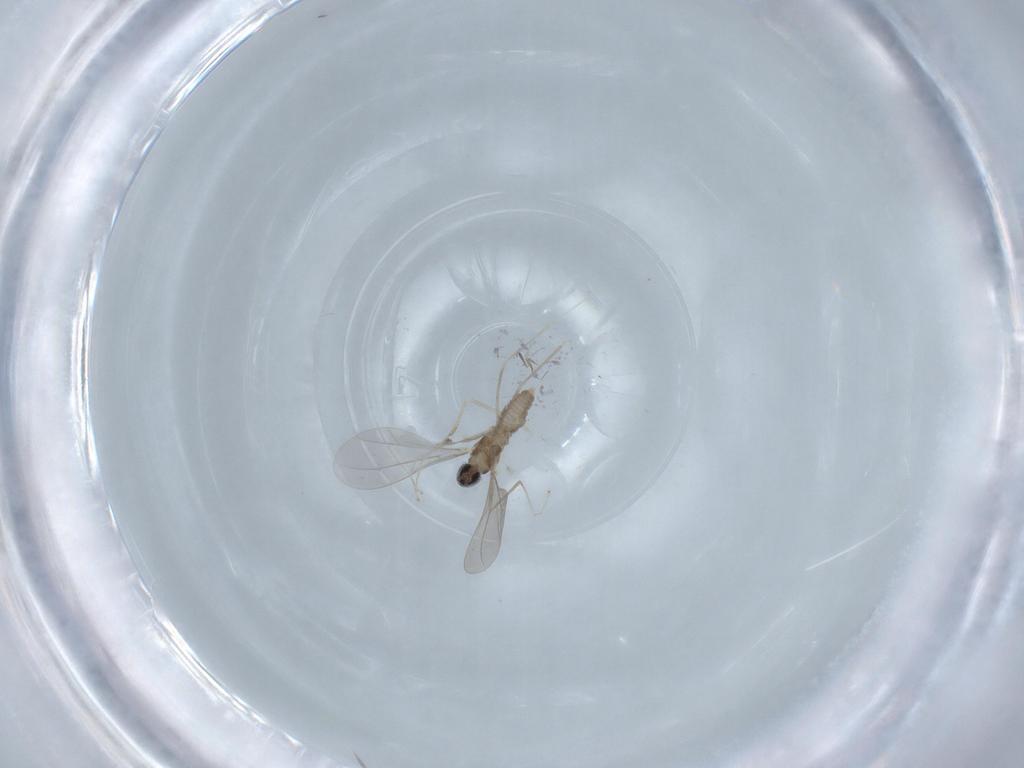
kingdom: Animalia
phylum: Arthropoda
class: Insecta
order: Diptera
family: Cecidomyiidae
